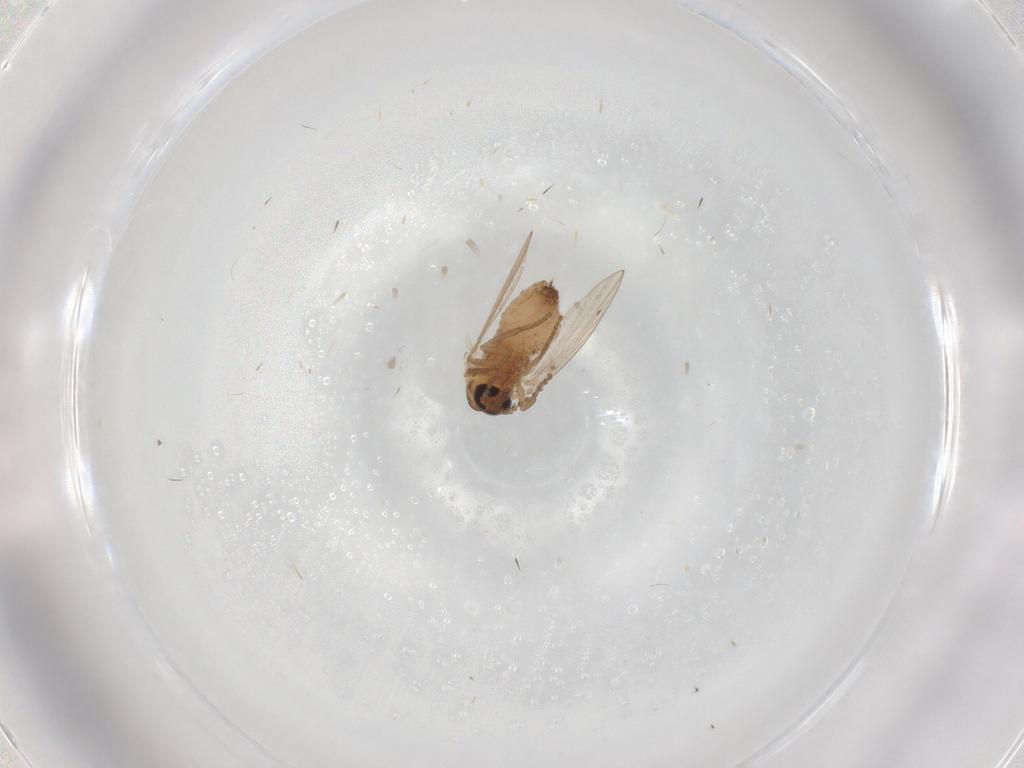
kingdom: Animalia
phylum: Arthropoda
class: Insecta
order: Diptera
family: Psychodidae
